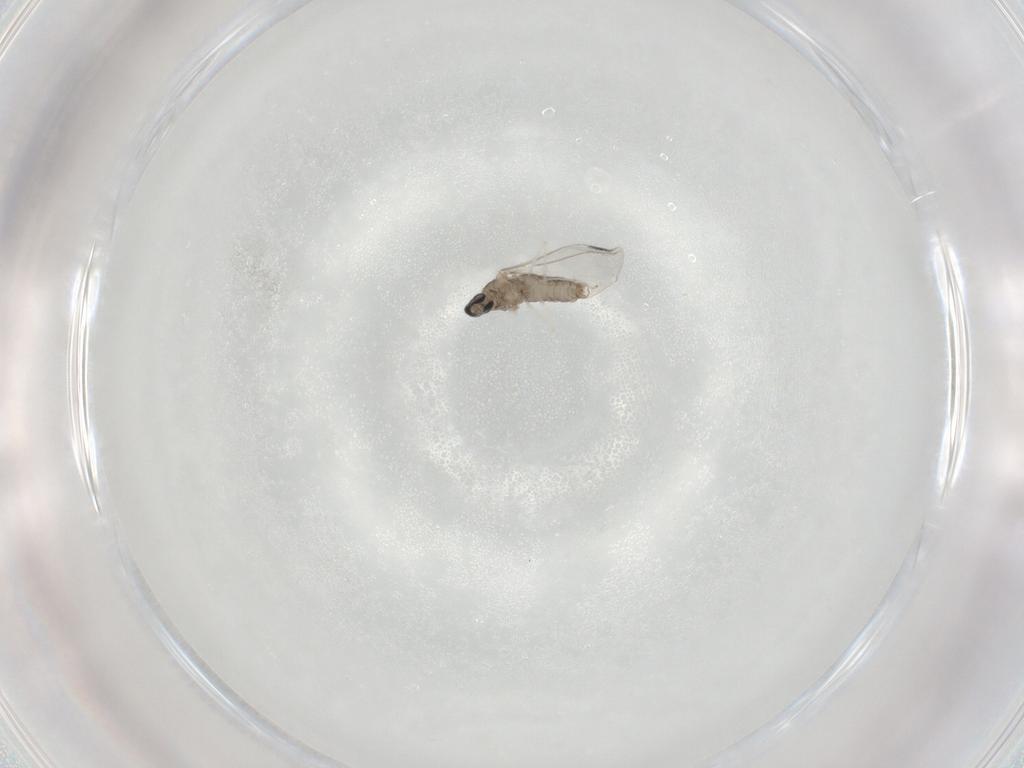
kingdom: Animalia
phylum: Arthropoda
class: Insecta
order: Diptera
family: Cecidomyiidae
